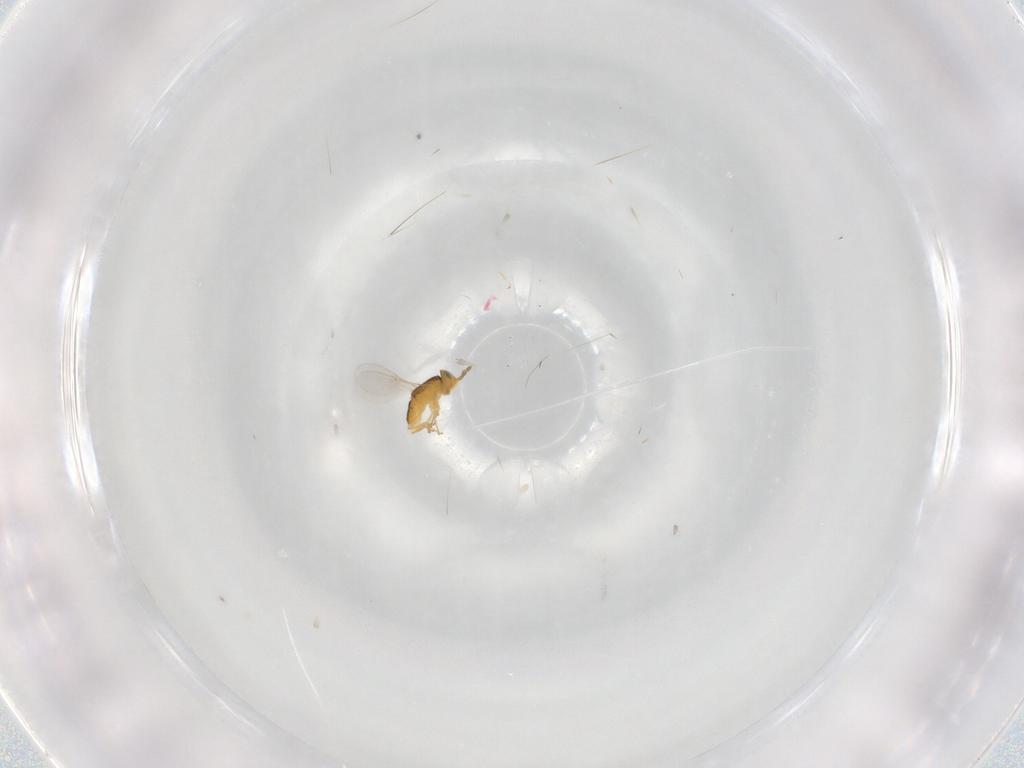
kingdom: Animalia
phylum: Arthropoda
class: Insecta
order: Hymenoptera
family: Encyrtidae
